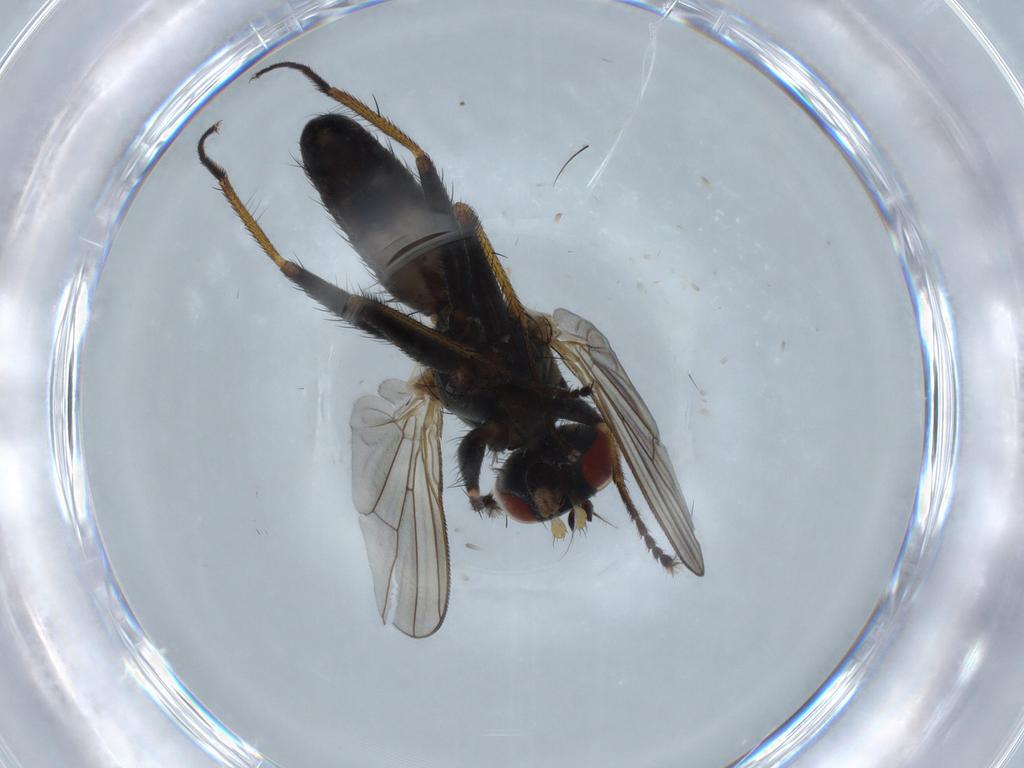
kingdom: Animalia
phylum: Arthropoda
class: Insecta
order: Diptera
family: Muscidae
